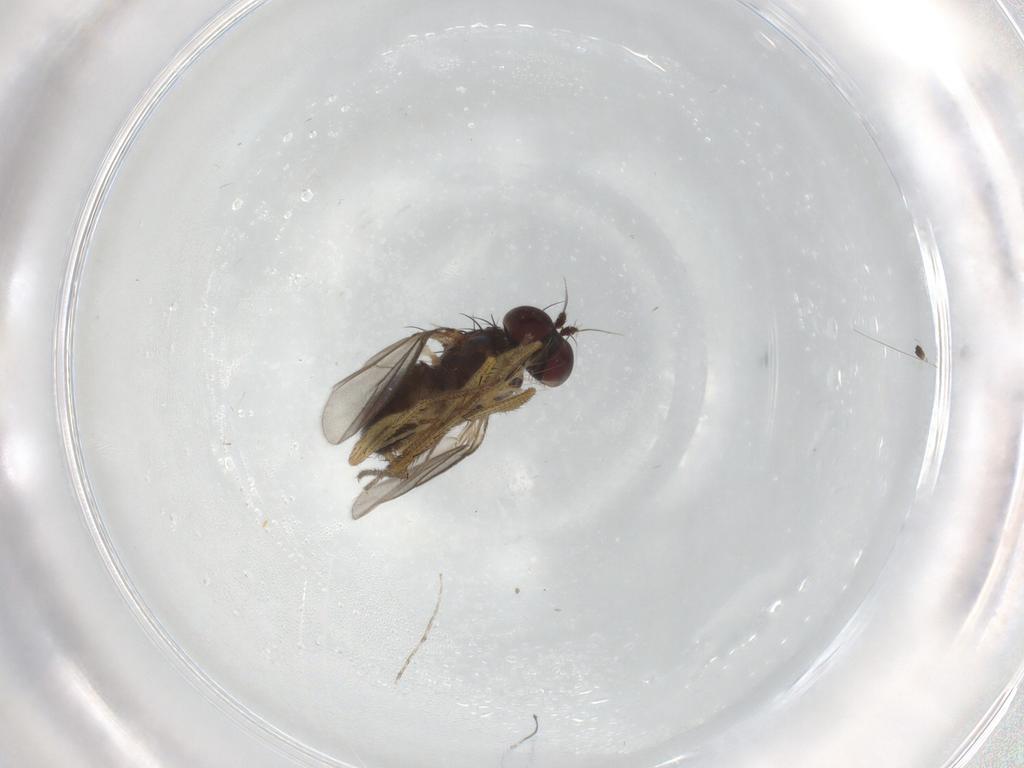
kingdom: Animalia
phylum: Arthropoda
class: Insecta
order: Diptera
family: Dolichopodidae
